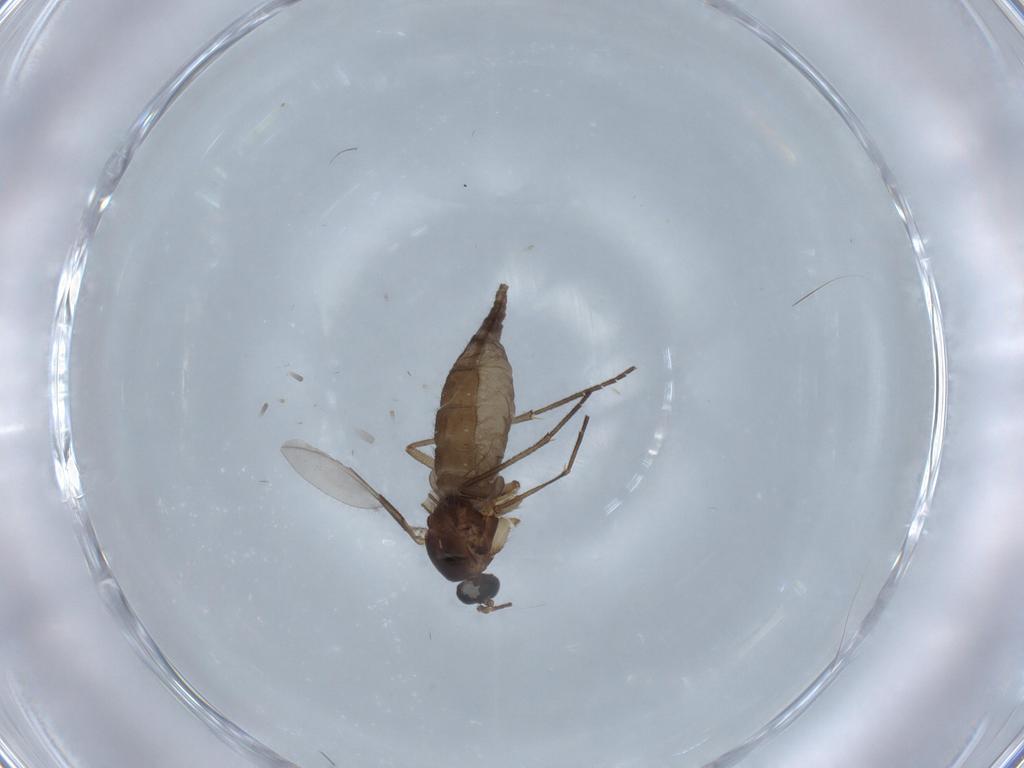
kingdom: Animalia
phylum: Arthropoda
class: Insecta
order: Diptera
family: Sciaridae
